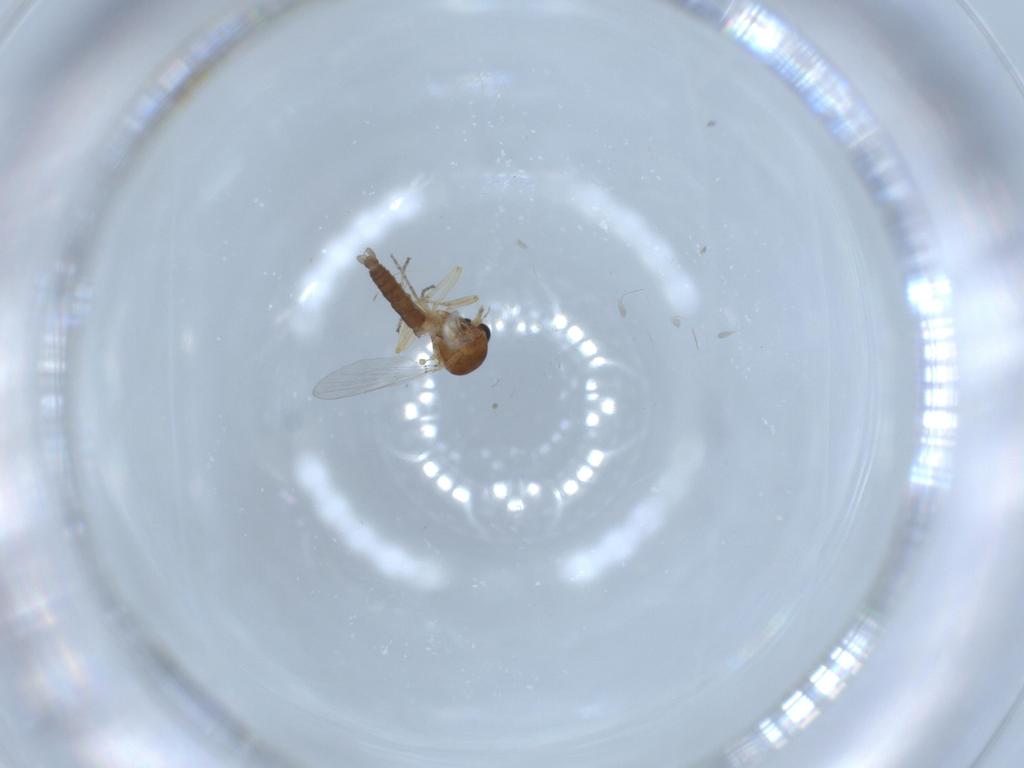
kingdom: Animalia
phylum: Arthropoda
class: Insecta
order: Diptera
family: Ceratopogonidae
